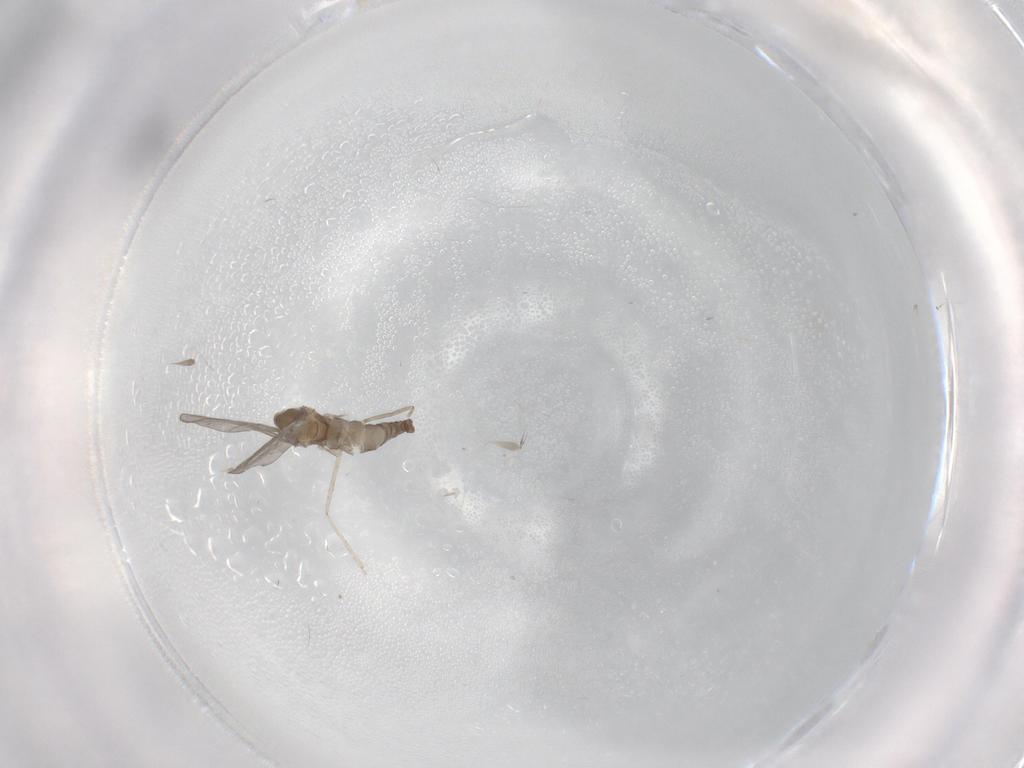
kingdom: Animalia
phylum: Arthropoda
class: Insecta
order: Diptera
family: Cecidomyiidae
